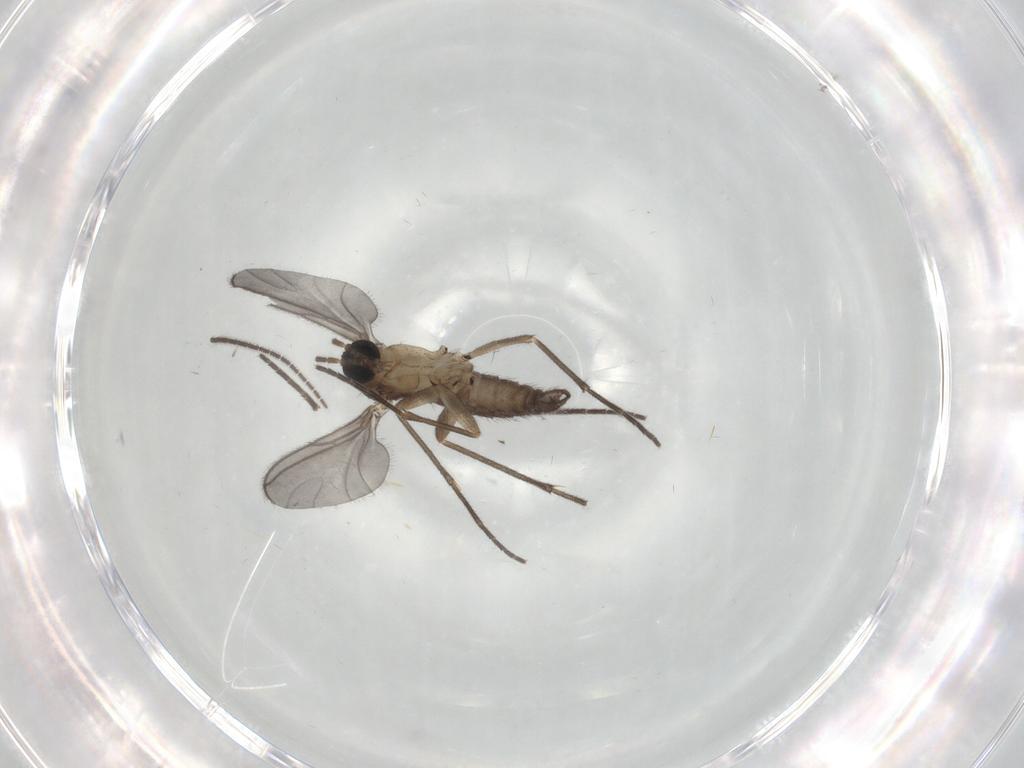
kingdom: Animalia
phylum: Arthropoda
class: Insecta
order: Diptera
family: Sciaridae
